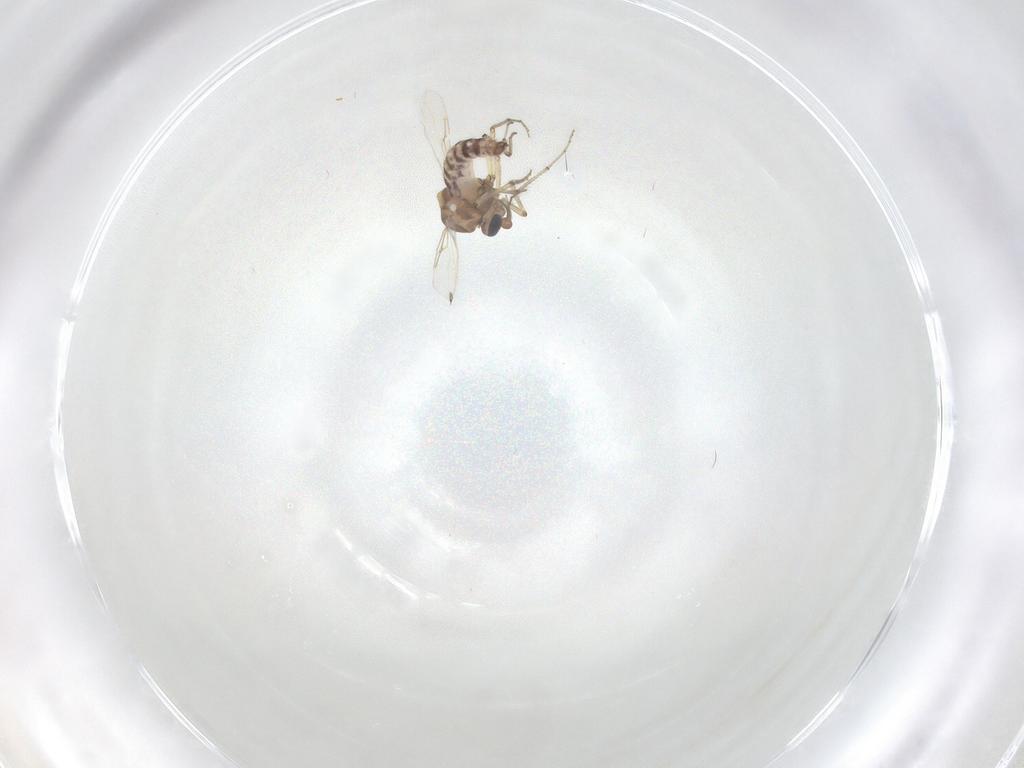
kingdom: Animalia
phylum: Arthropoda
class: Insecta
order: Diptera
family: Ceratopogonidae
